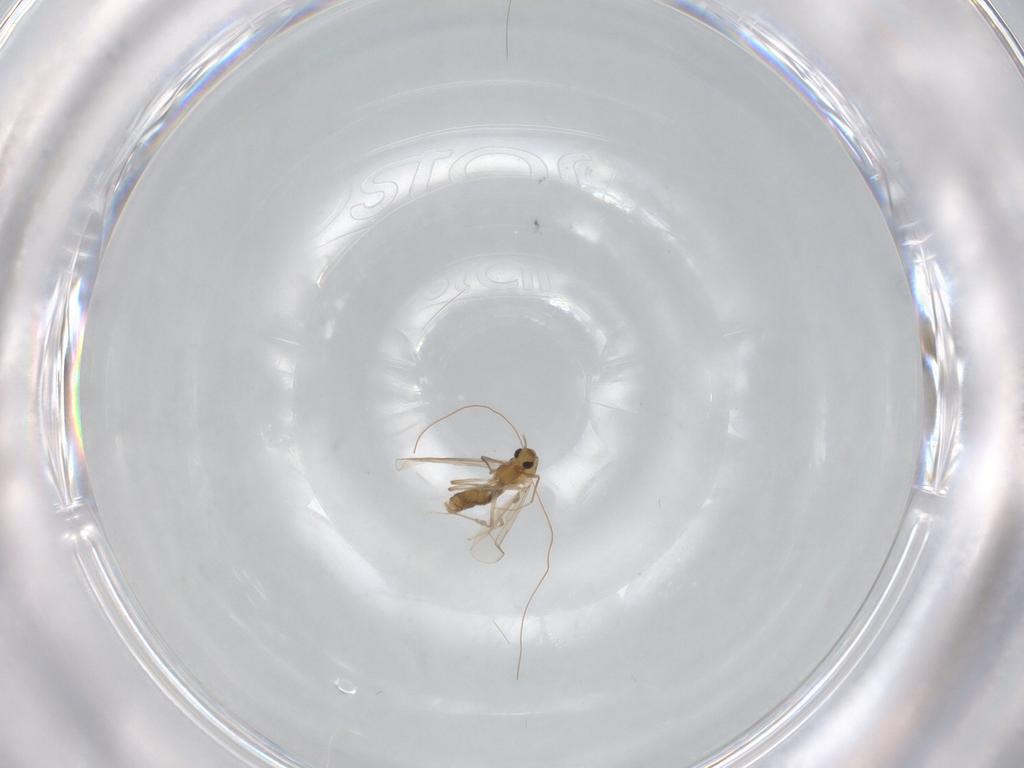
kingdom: Animalia
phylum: Arthropoda
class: Insecta
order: Diptera
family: Chironomidae
